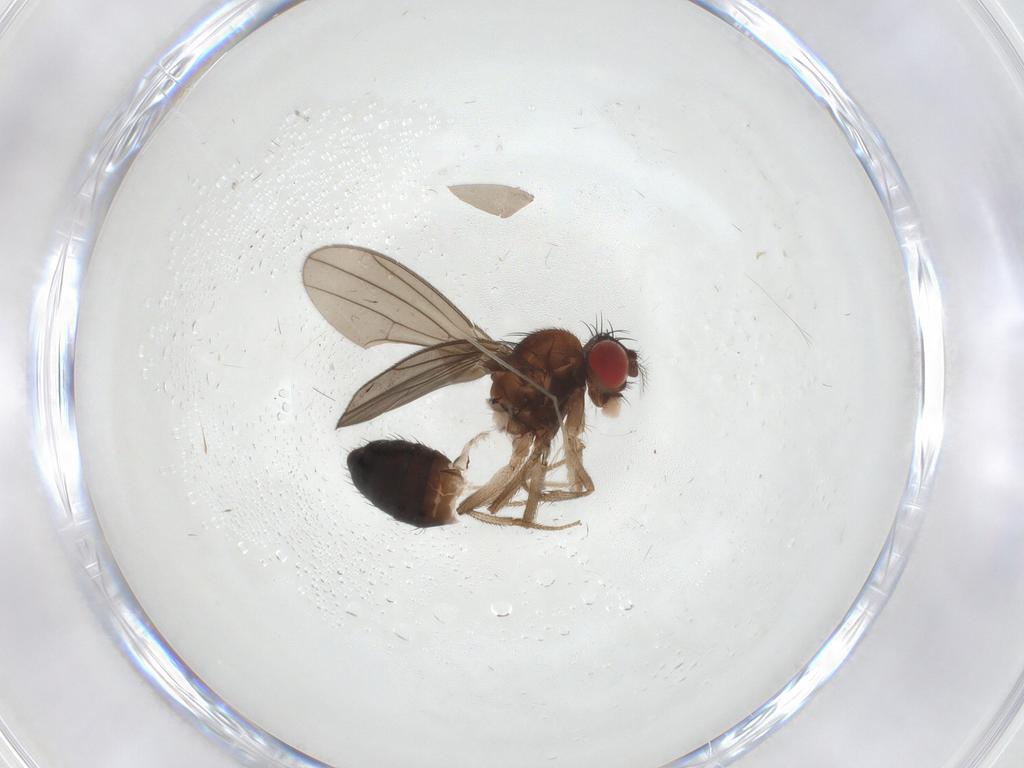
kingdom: Animalia
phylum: Arthropoda
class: Insecta
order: Diptera
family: Drosophilidae
